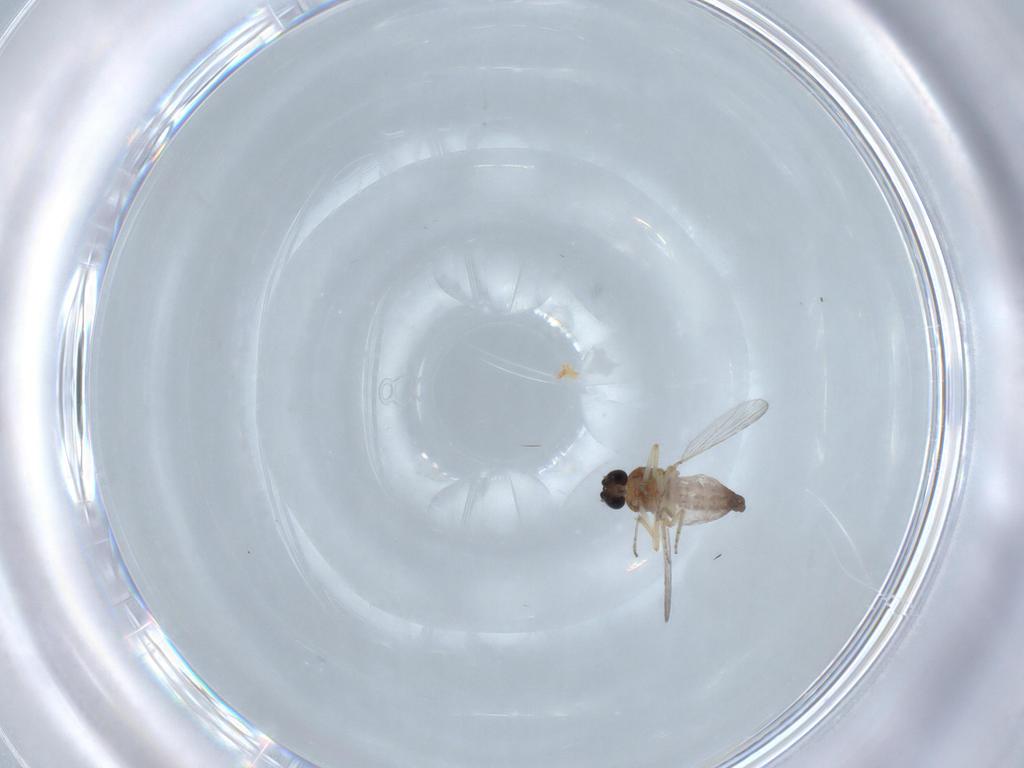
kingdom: Animalia
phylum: Arthropoda
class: Insecta
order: Diptera
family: Ceratopogonidae
